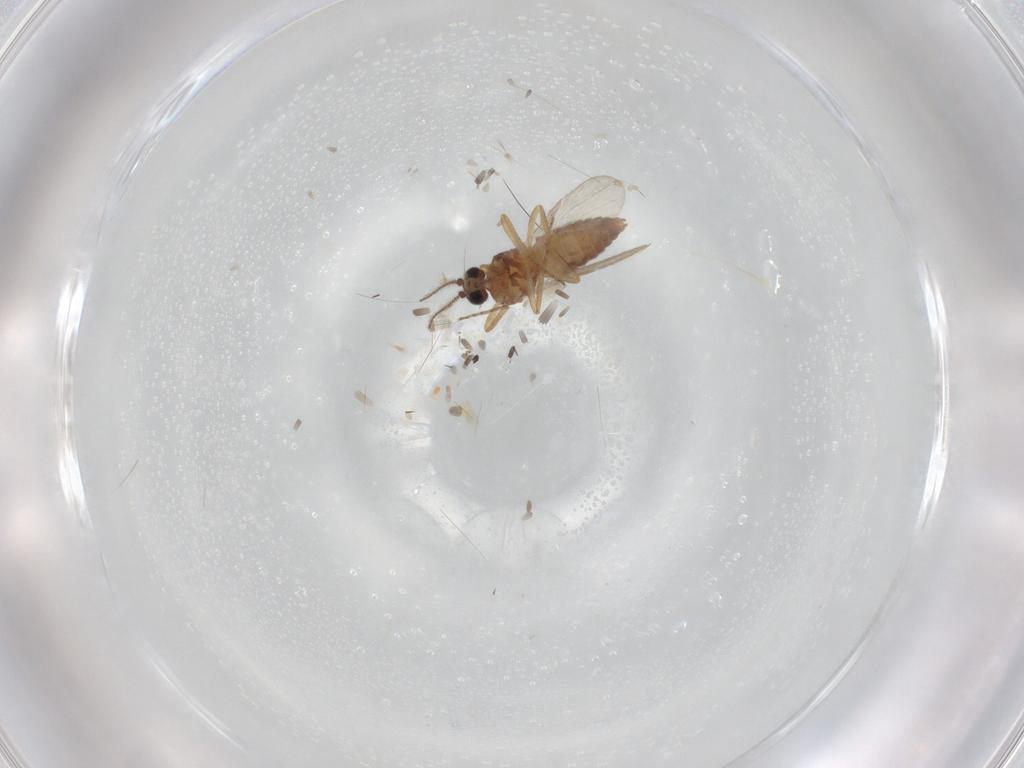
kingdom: Animalia
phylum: Arthropoda
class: Insecta
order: Diptera
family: Ceratopogonidae
